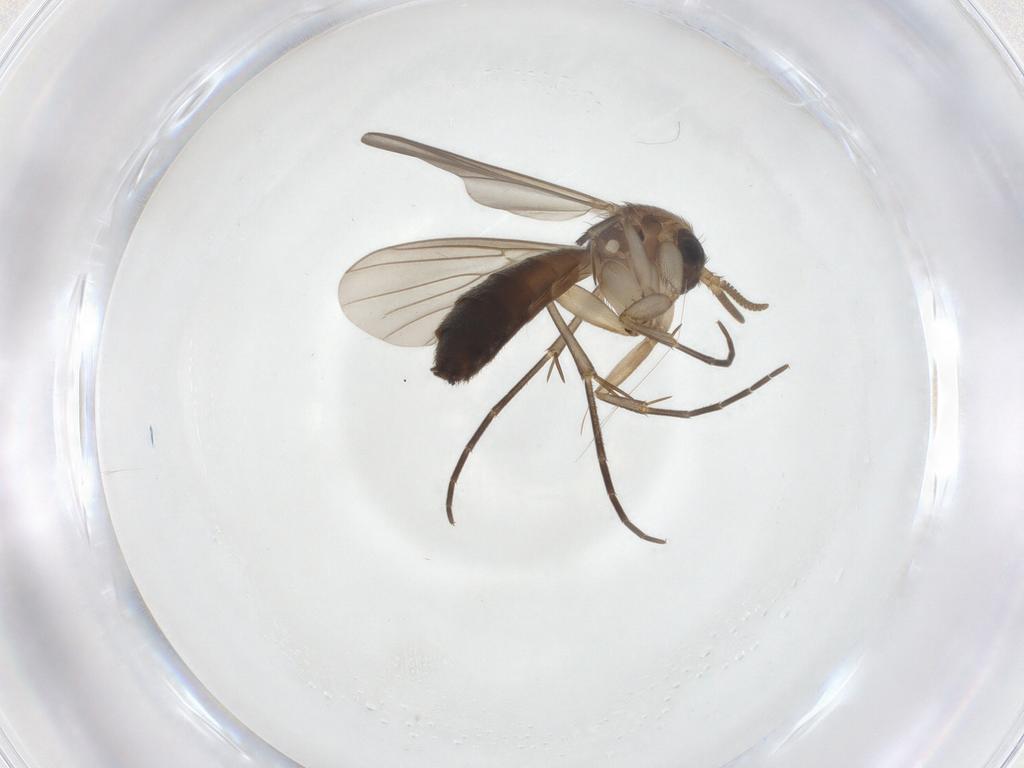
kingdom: Animalia
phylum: Arthropoda
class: Insecta
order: Diptera
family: Mycetophilidae
